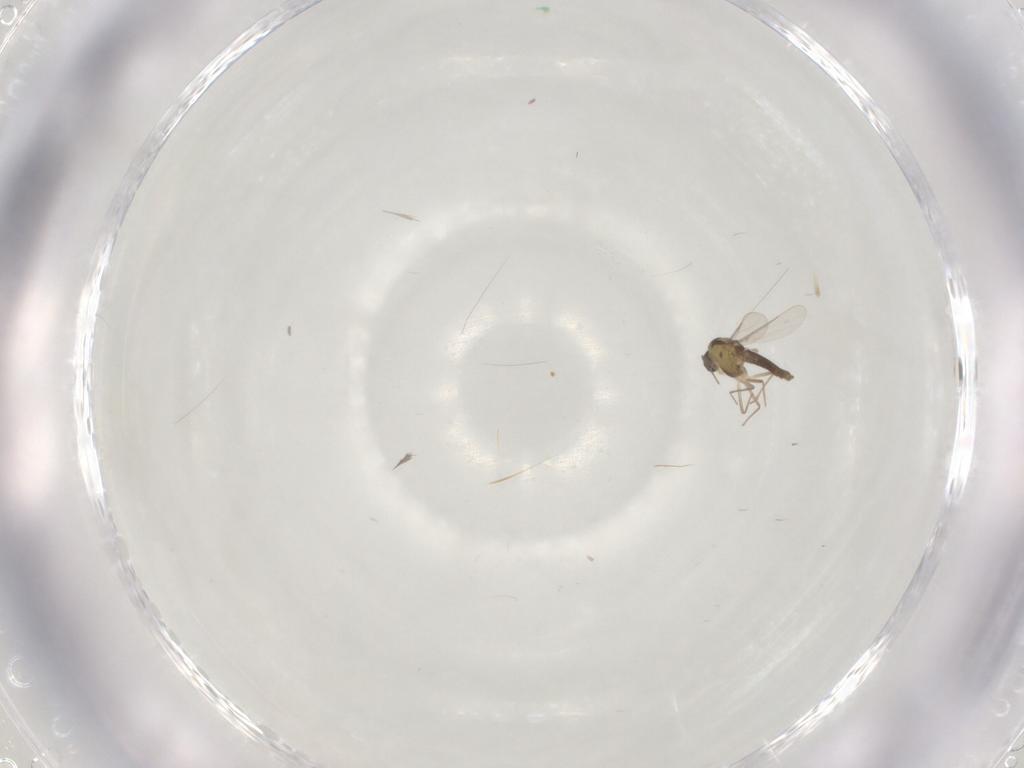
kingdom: Animalia
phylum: Arthropoda
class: Insecta
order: Diptera
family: Chironomidae
